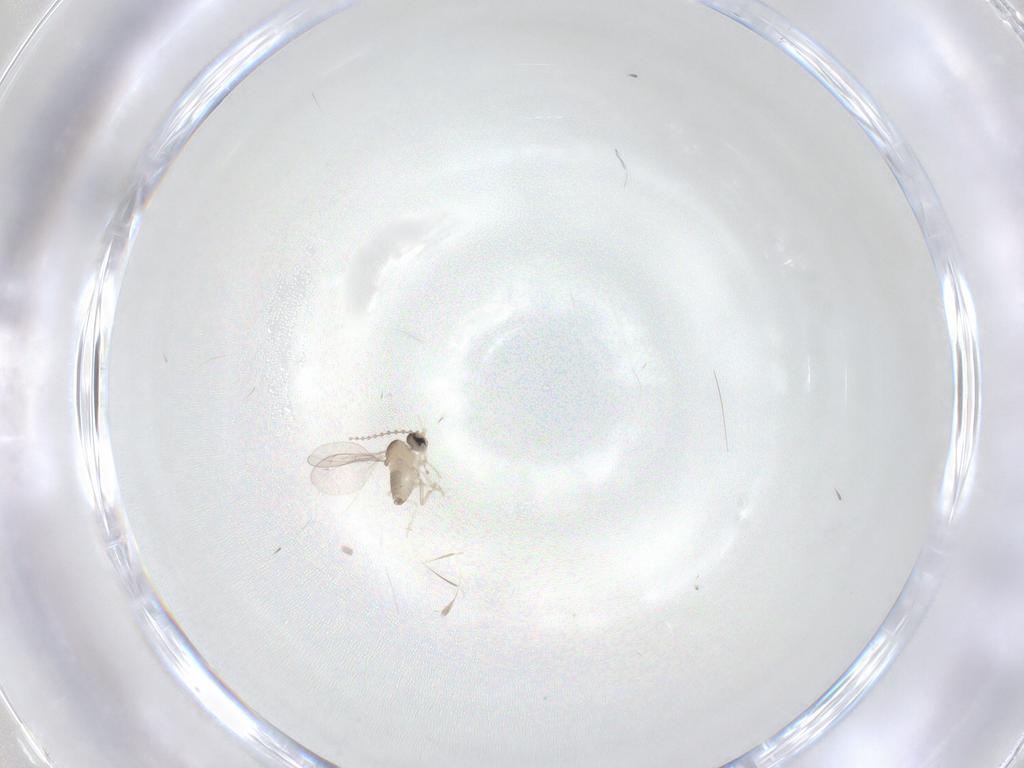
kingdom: Animalia
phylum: Arthropoda
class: Insecta
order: Diptera
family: Cecidomyiidae
